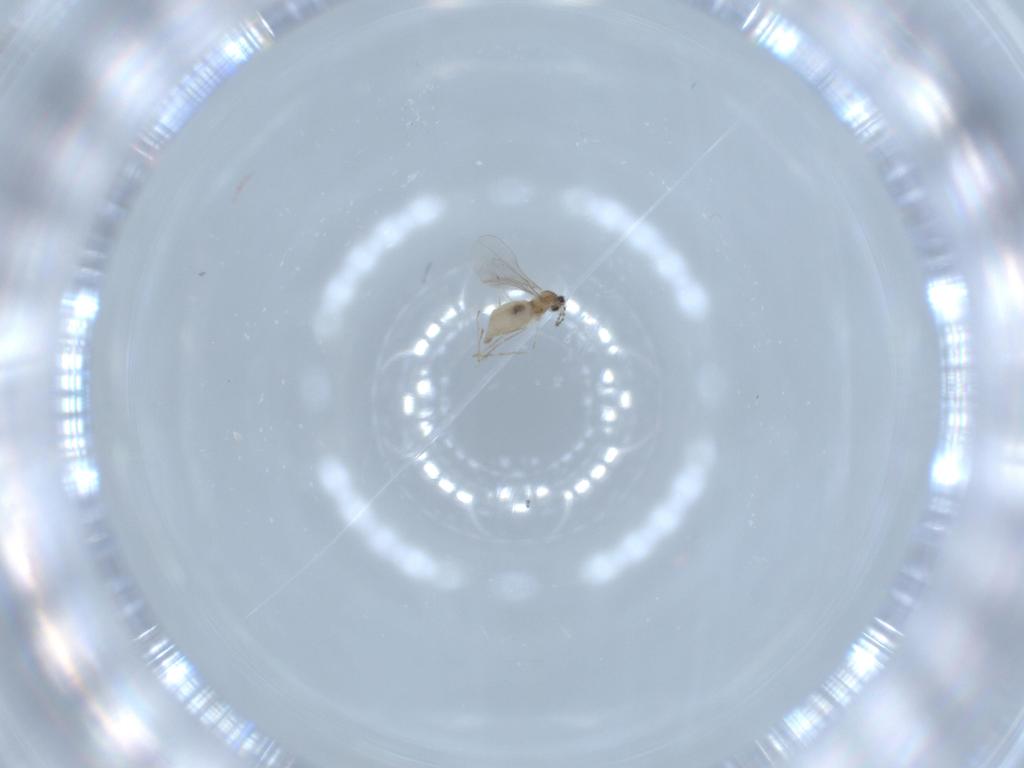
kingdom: Animalia
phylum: Arthropoda
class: Insecta
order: Diptera
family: Cecidomyiidae
